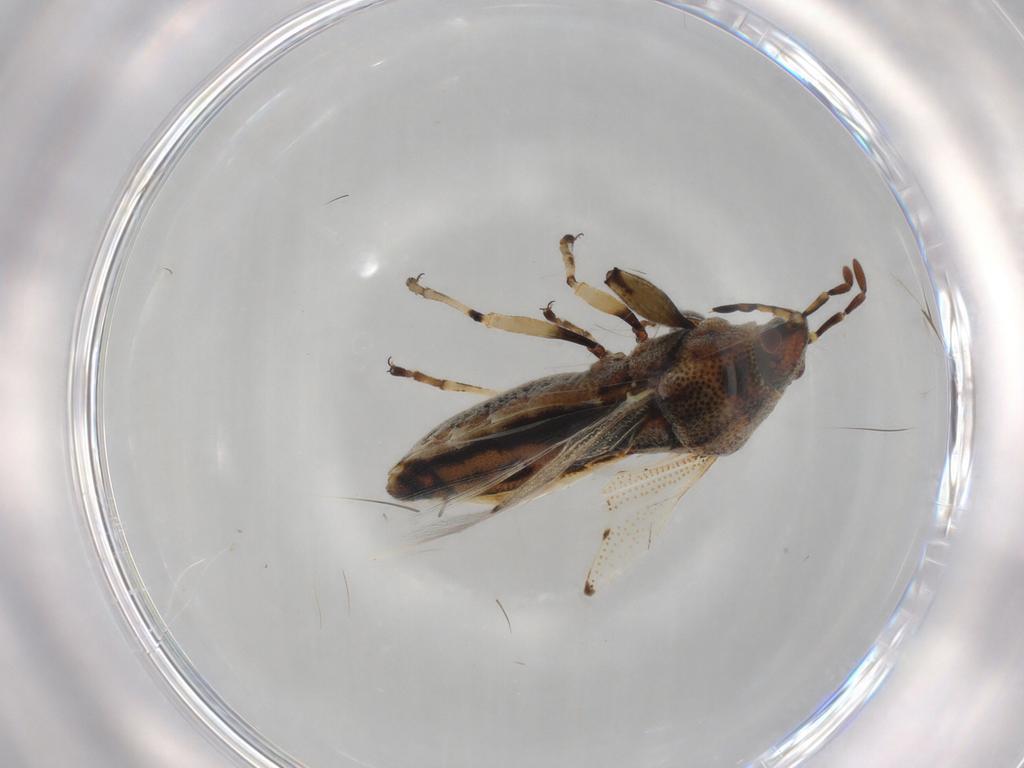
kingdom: Animalia
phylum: Arthropoda
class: Insecta
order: Hemiptera
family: Pachygronthidae
